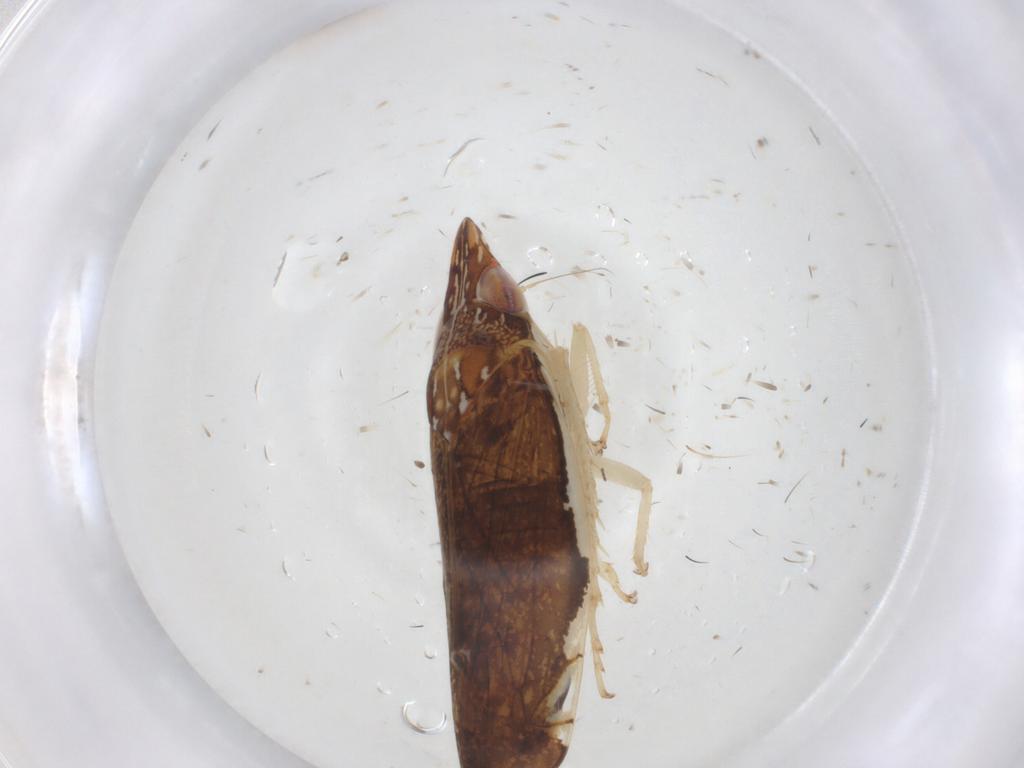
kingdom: Animalia
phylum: Arthropoda
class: Insecta
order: Hemiptera
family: Cicadellidae
